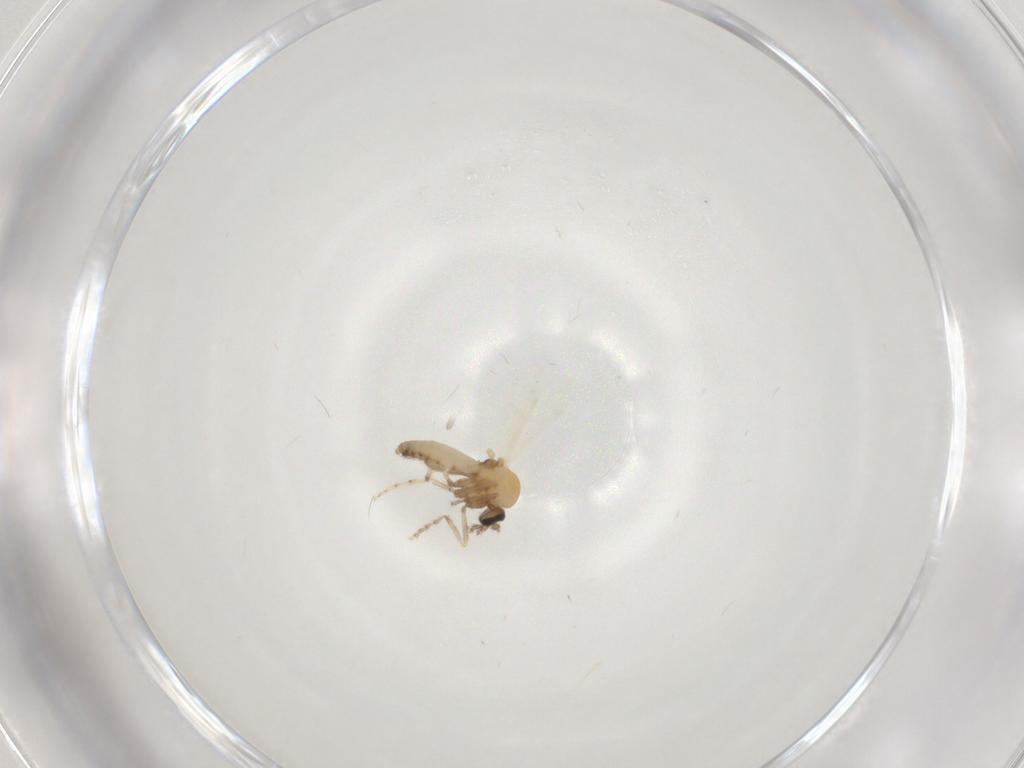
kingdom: Animalia
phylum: Arthropoda
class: Insecta
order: Diptera
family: Ceratopogonidae
